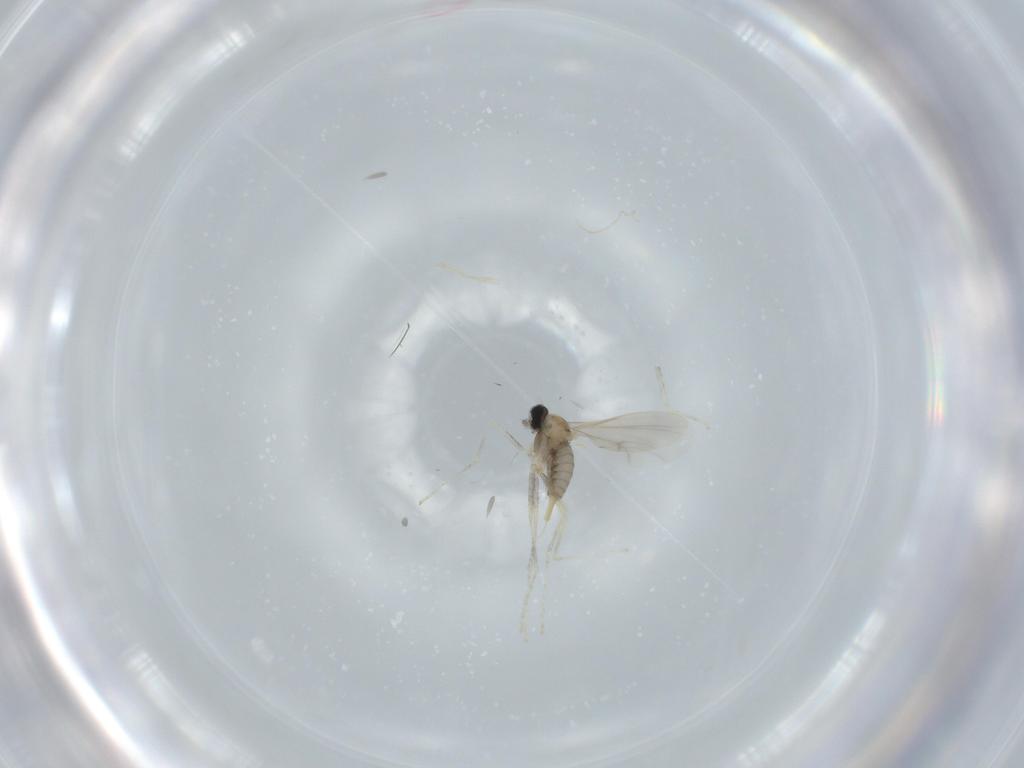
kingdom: Animalia
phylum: Arthropoda
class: Insecta
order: Diptera
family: Cecidomyiidae
